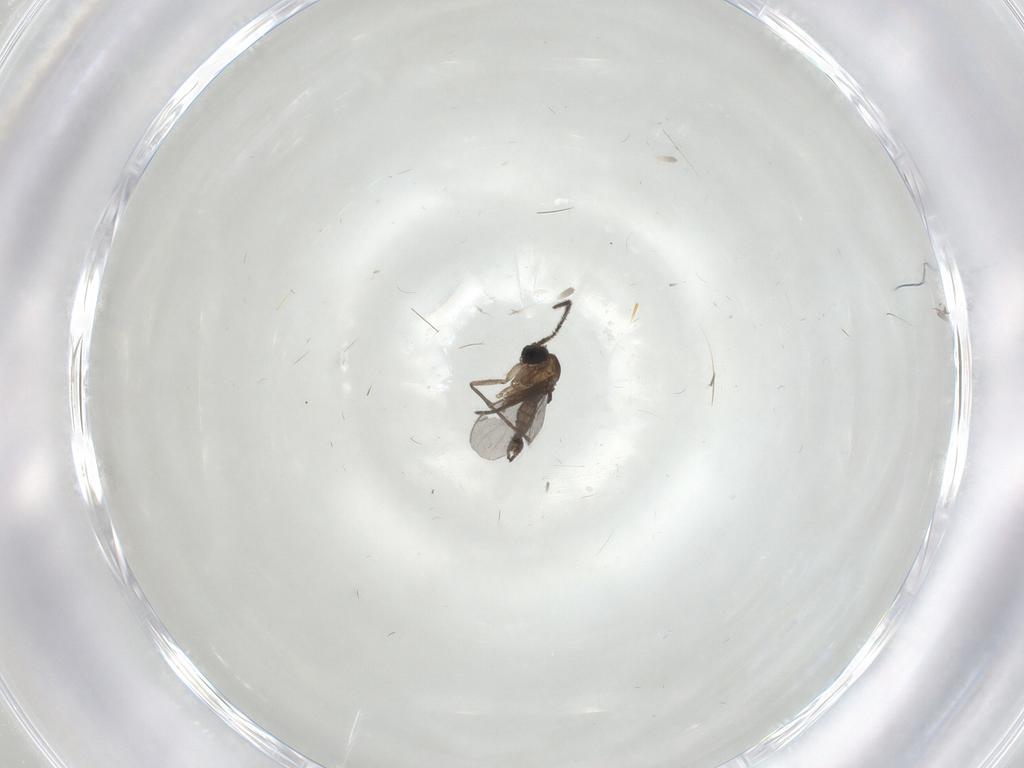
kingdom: Animalia
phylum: Arthropoda
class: Insecta
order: Diptera
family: Sciaridae
